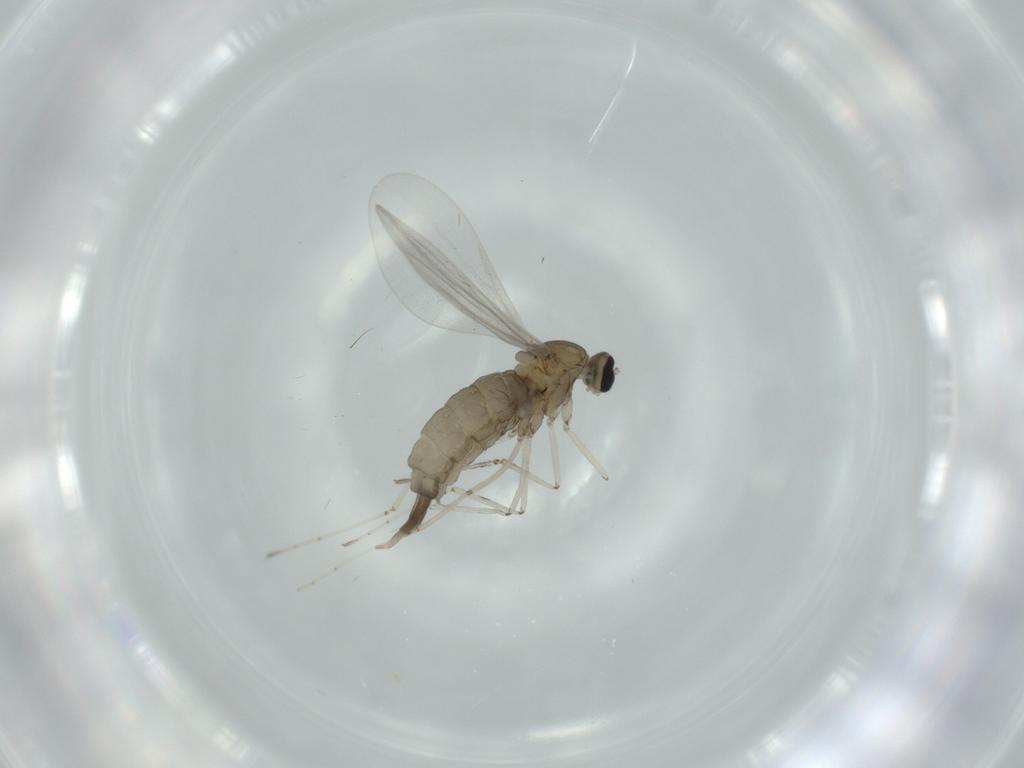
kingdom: Animalia
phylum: Arthropoda
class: Insecta
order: Diptera
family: Cecidomyiidae
